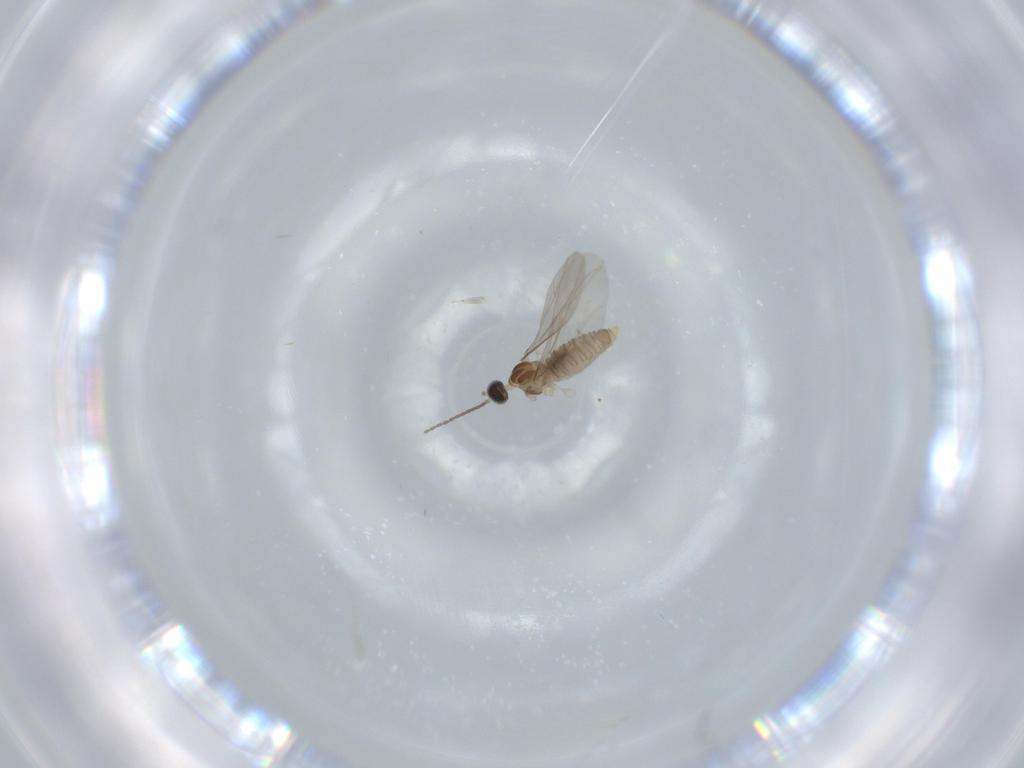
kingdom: Animalia
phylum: Arthropoda
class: Insecta
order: Diptera
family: Cecidomyiidae
